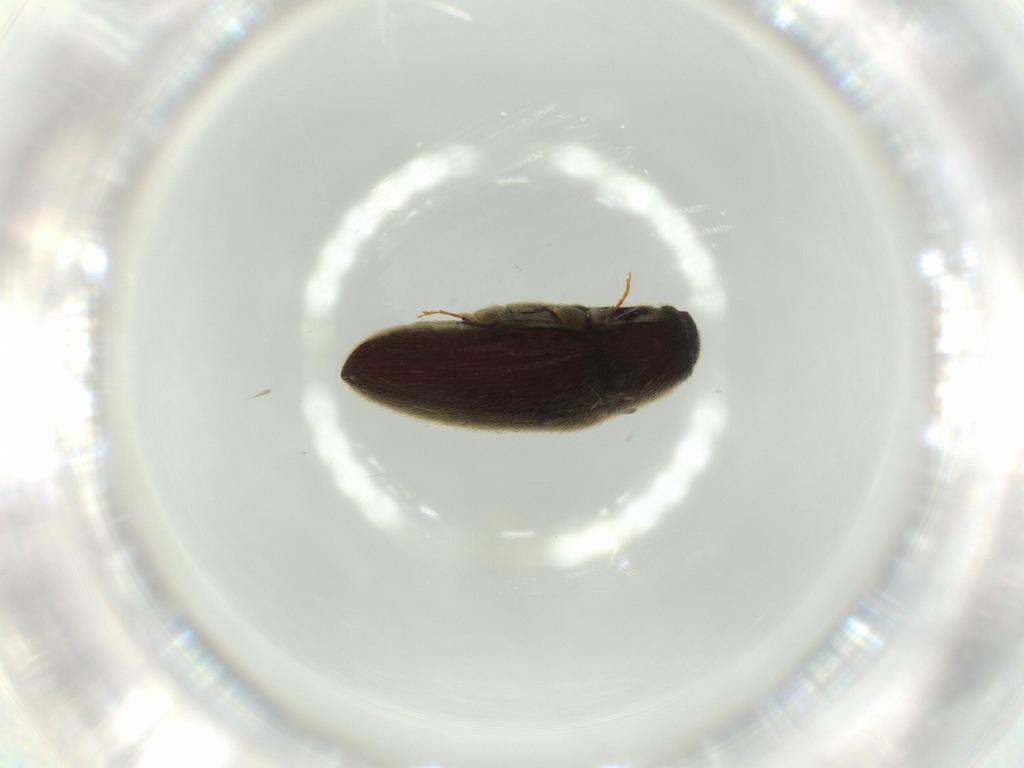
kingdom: Animalia
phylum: Arthropoda
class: Insecta
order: Coleoptera
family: Throscidae
